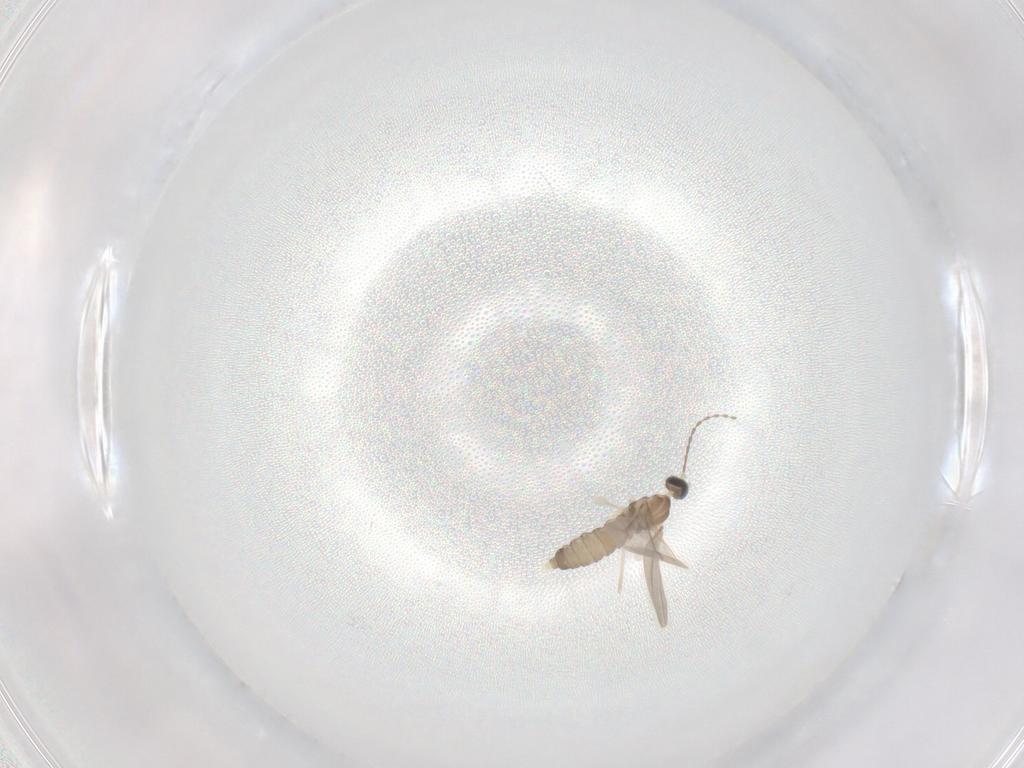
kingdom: Animalia
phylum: Arthropoda
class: Insecta
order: Diptera
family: Cecidomyiidae
